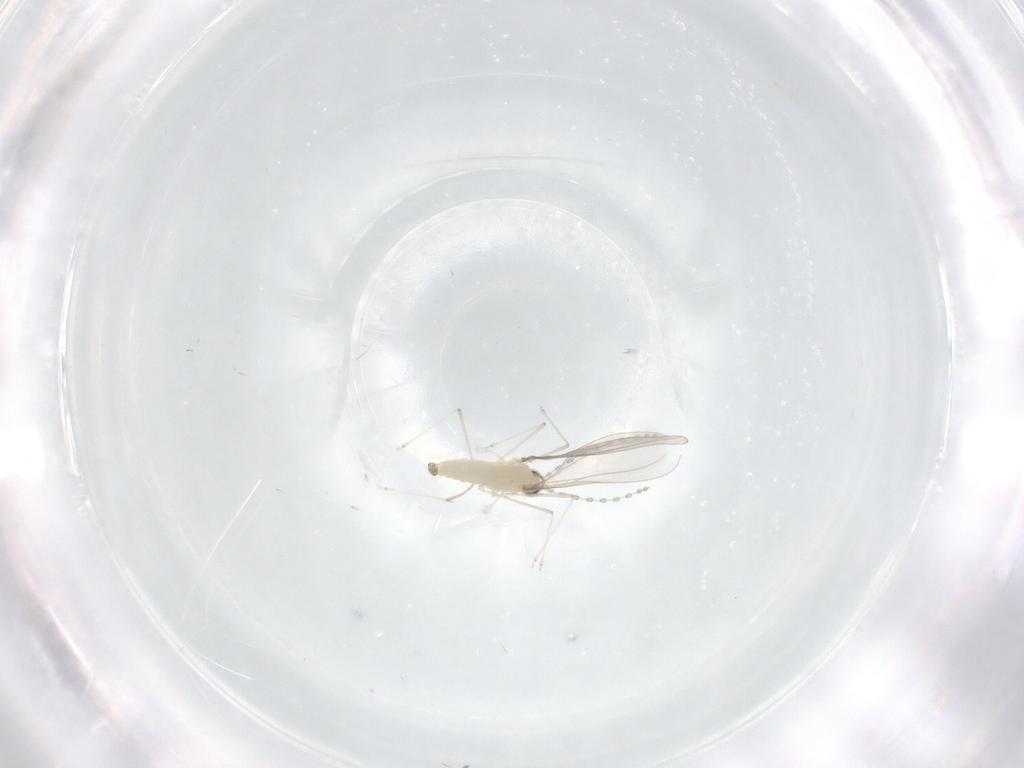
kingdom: Animalia
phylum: Arthropoda
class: Insecta
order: Diptera
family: Cecidomyiidae
